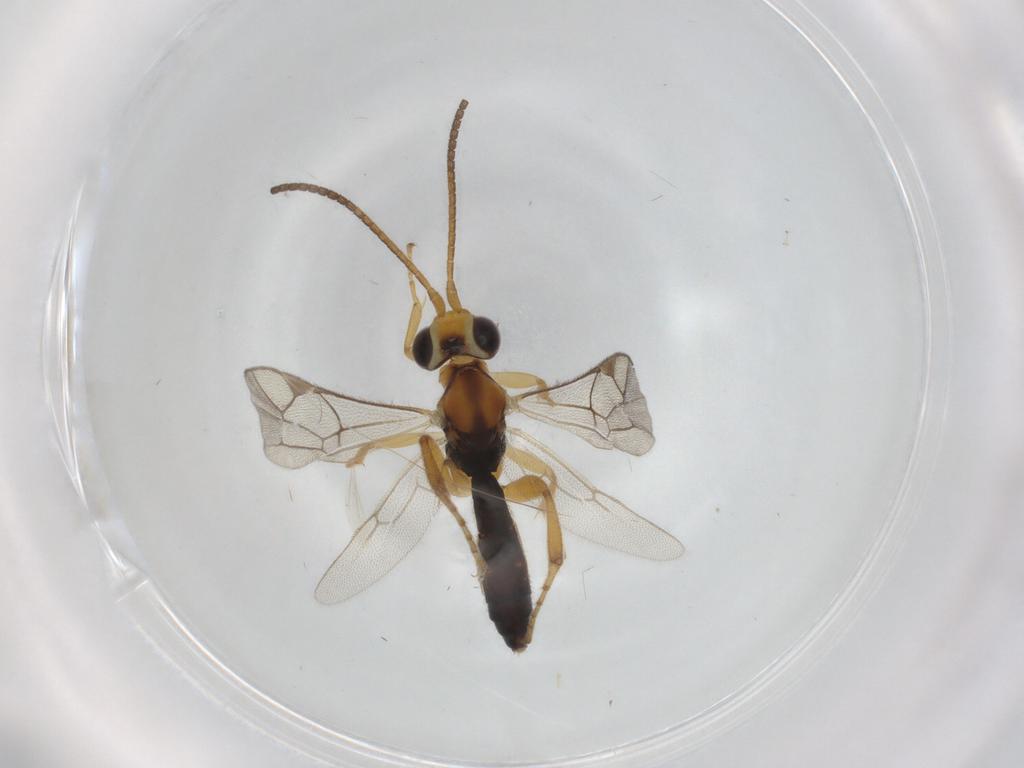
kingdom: Animalia
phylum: Arthropoda
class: Insecta
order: Hymenoptera
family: Ichneumonidae
